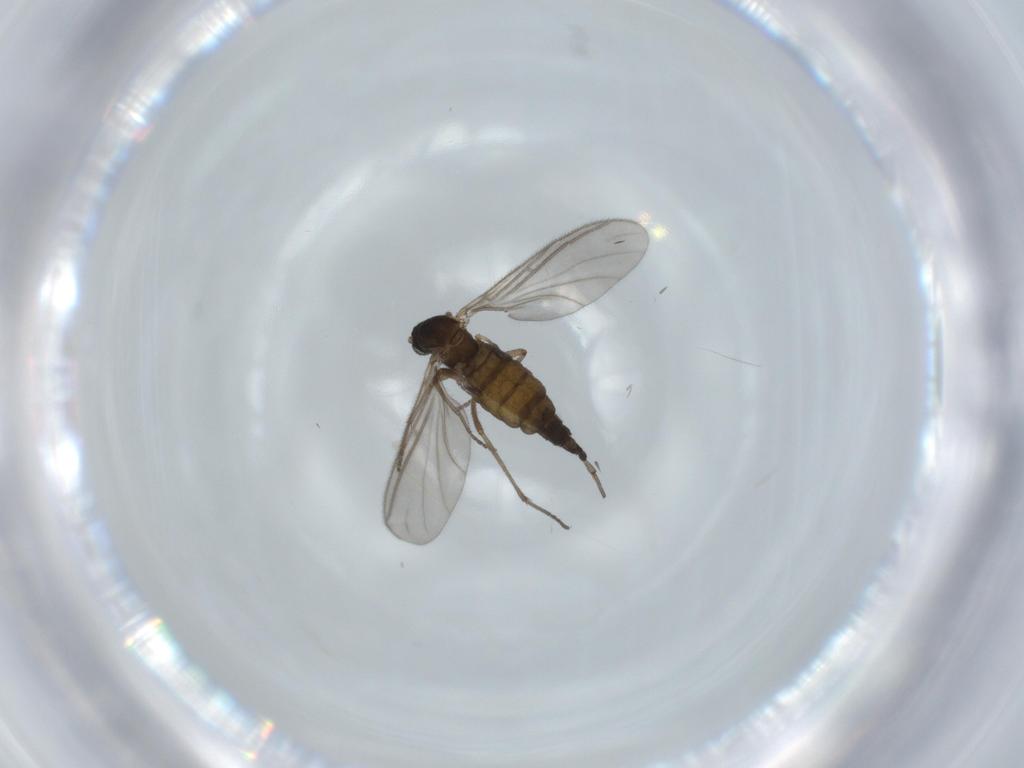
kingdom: Animalia
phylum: Arthropoda
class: Insecta
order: Diptera
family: Sciaridae
